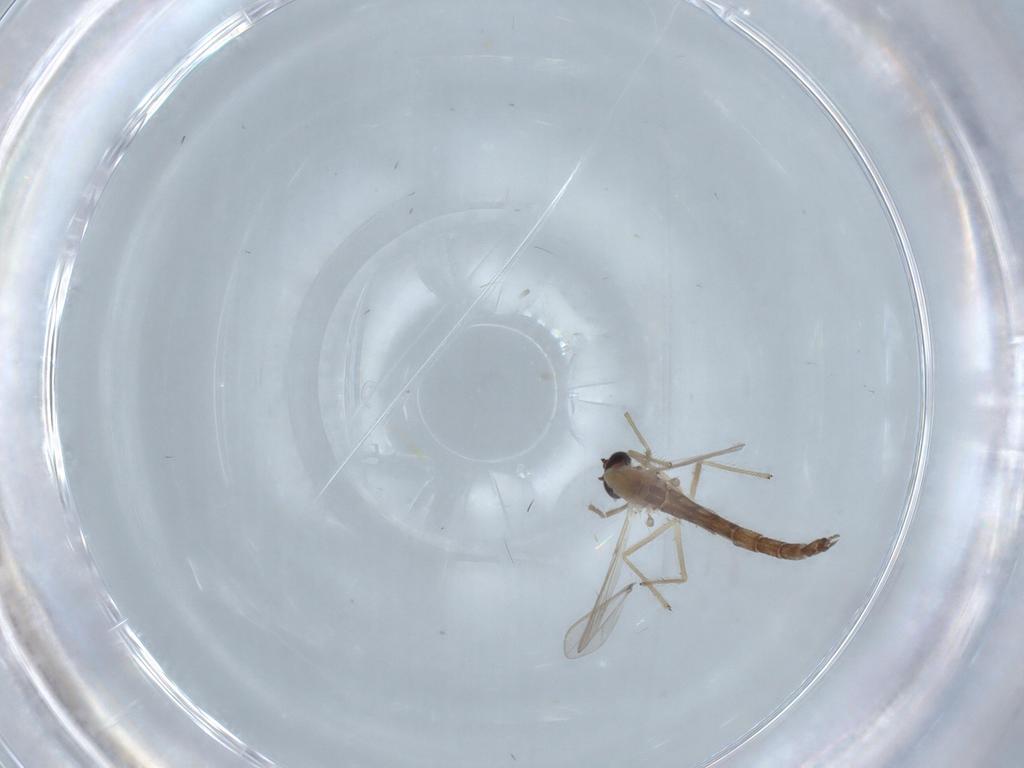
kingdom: Animalia
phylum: Arthropoda
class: Insecta
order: Diptera
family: Chironomidae
